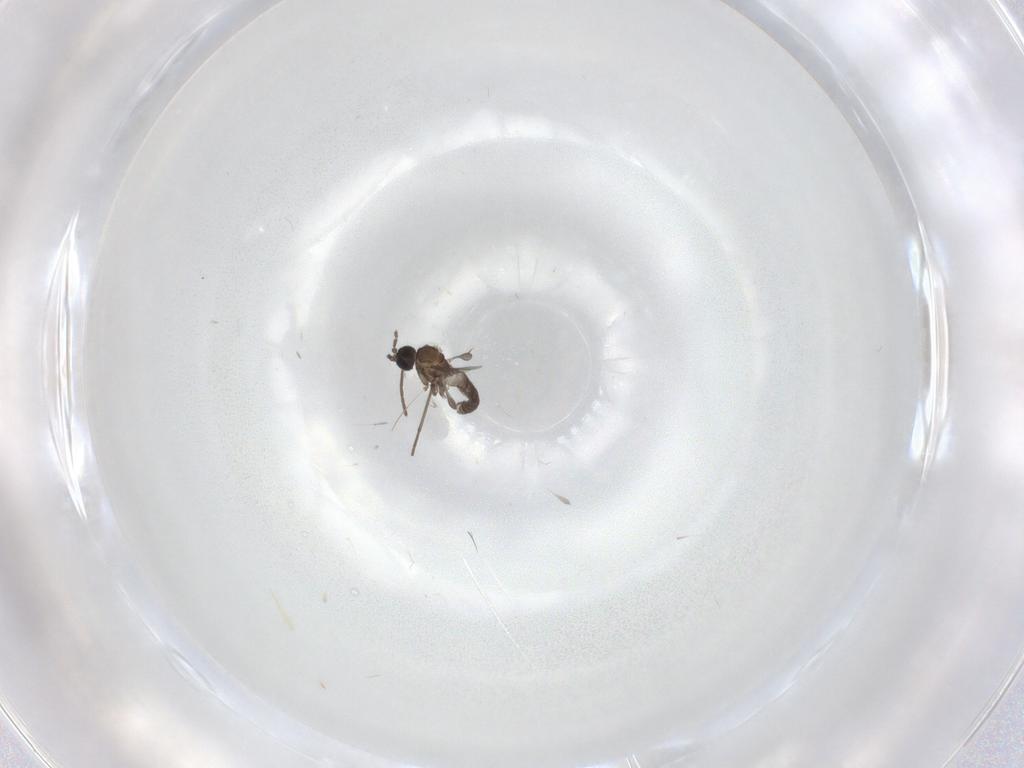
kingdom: Animalia
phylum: Arthropoda
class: Insecta
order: Diptera
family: Sciaridae
